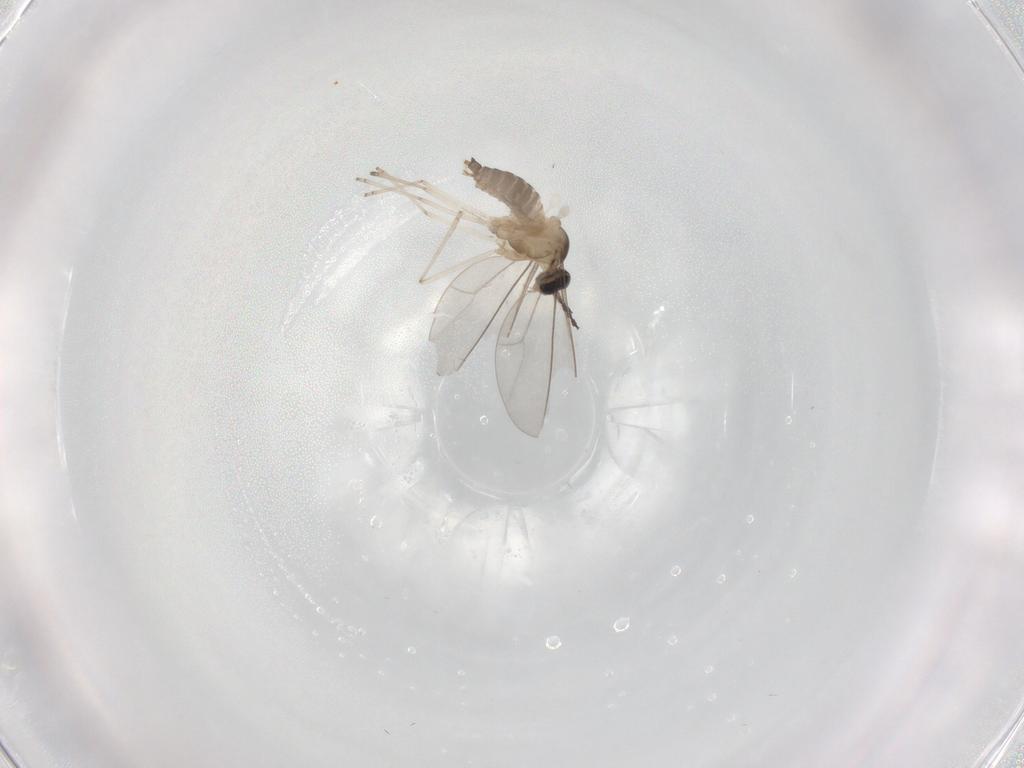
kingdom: Animalia
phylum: Arthropoda
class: Insecta
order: Diptera
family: Cecidomyiidae
